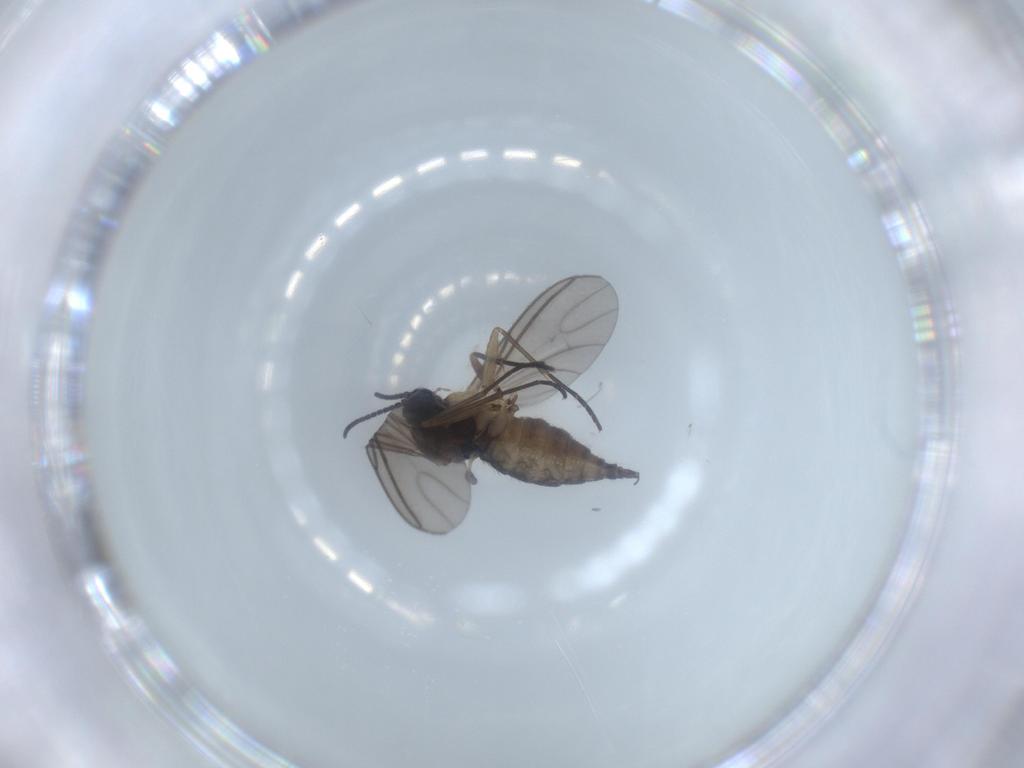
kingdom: Animalia
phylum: Arthropoda
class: Insecta
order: Diptera
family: Sciaridae
